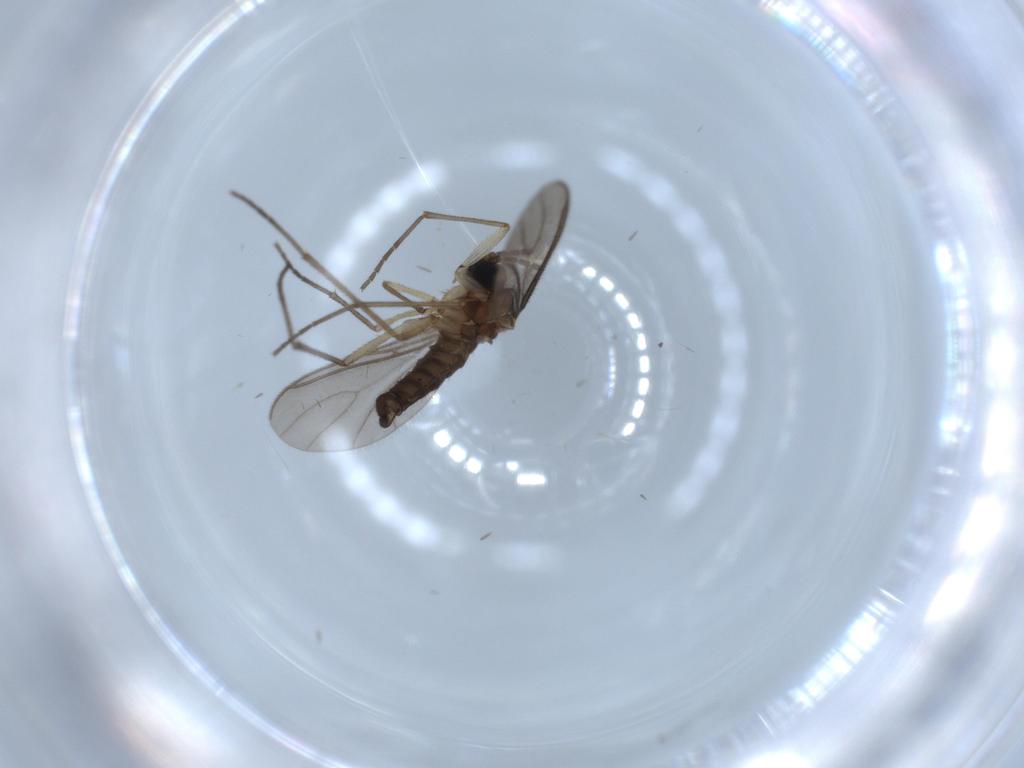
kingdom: Animalia
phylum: Arthropoda
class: Insecta
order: Diptera
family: Sciaridae
